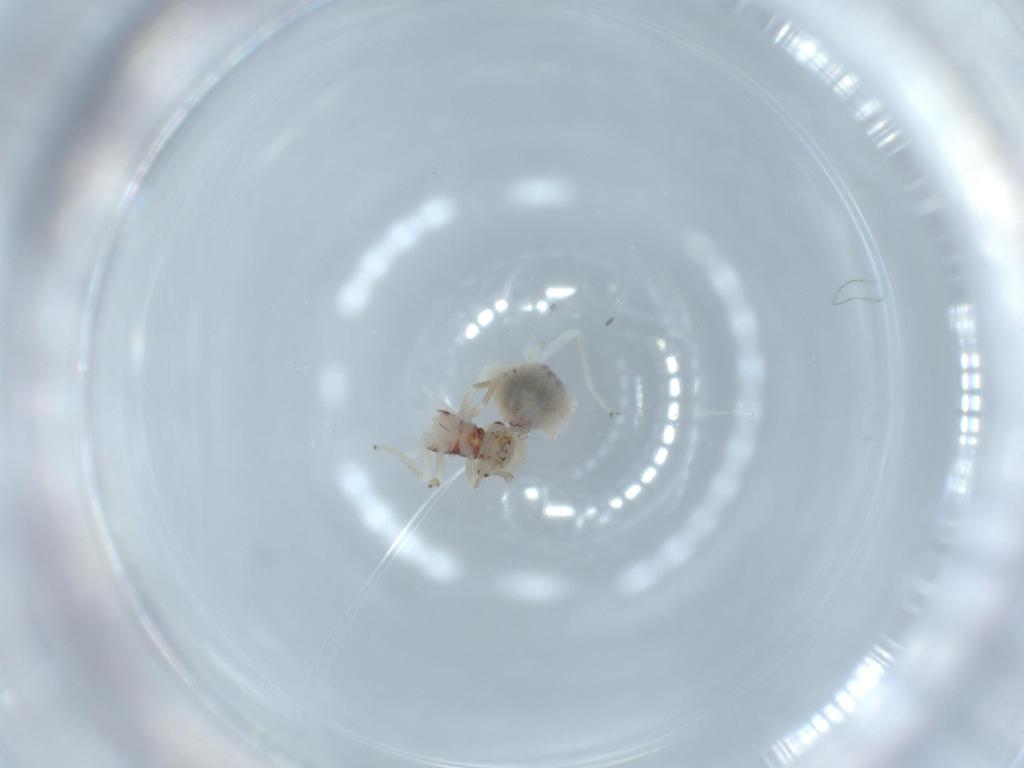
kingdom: Animalia
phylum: Arthropoda
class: Insecta
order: Psocodea
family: Caeciliusidae
